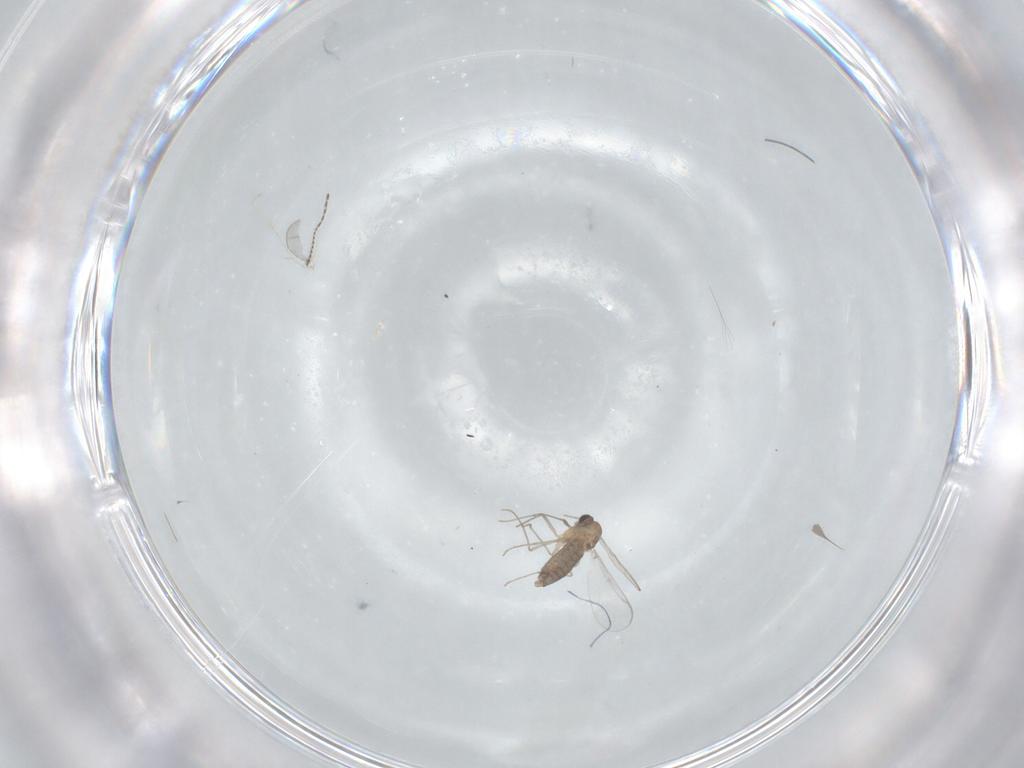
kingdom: Animalia
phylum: Arthropoda
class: Insecta
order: Diptera
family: Chironomidae
